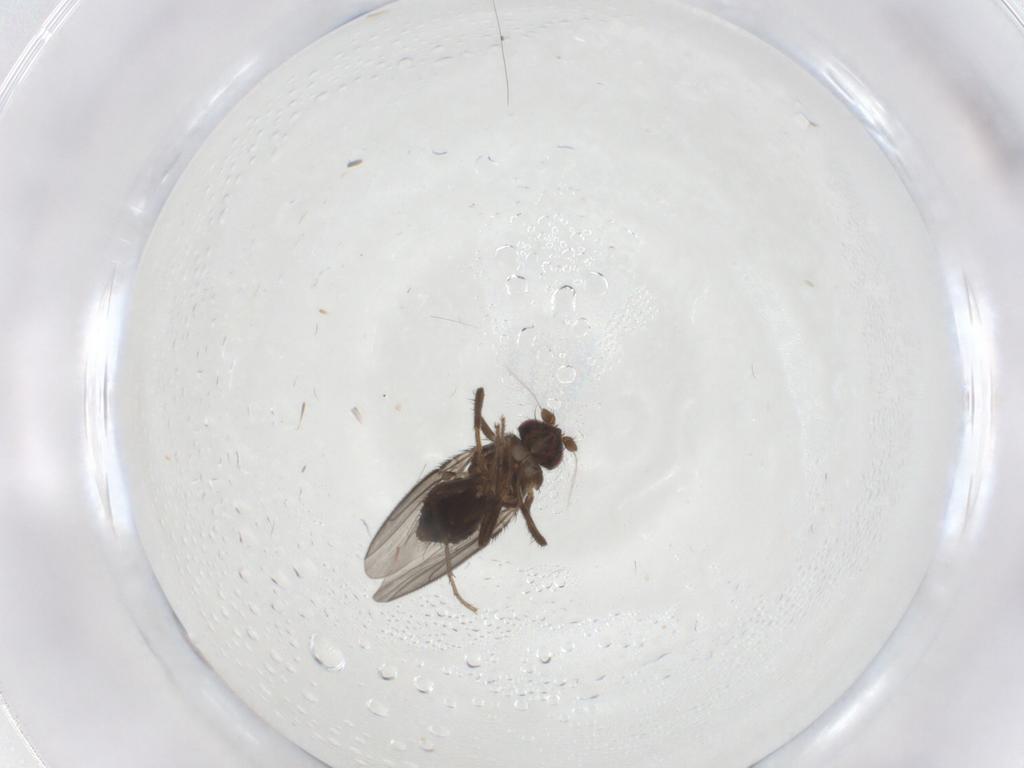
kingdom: Animalia
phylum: Arthropoda
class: Insecta
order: Diptera
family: Sphaeroceridae
